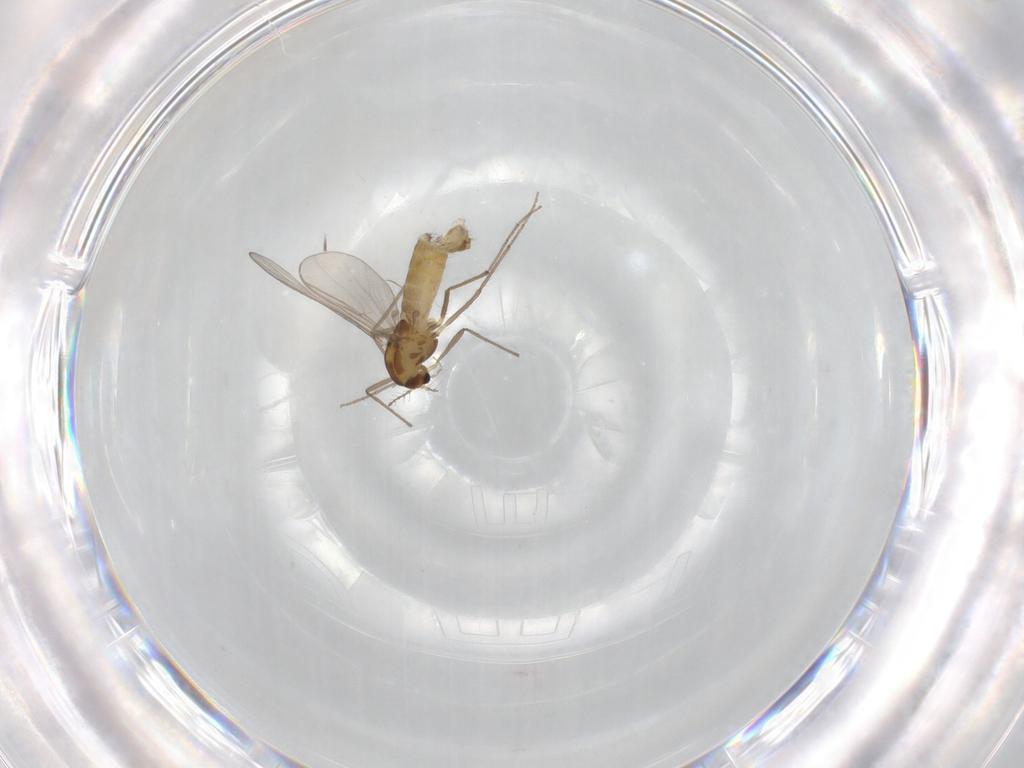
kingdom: Animalia
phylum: Arthropoda
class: Insecta
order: Diptera
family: Chironomidae
